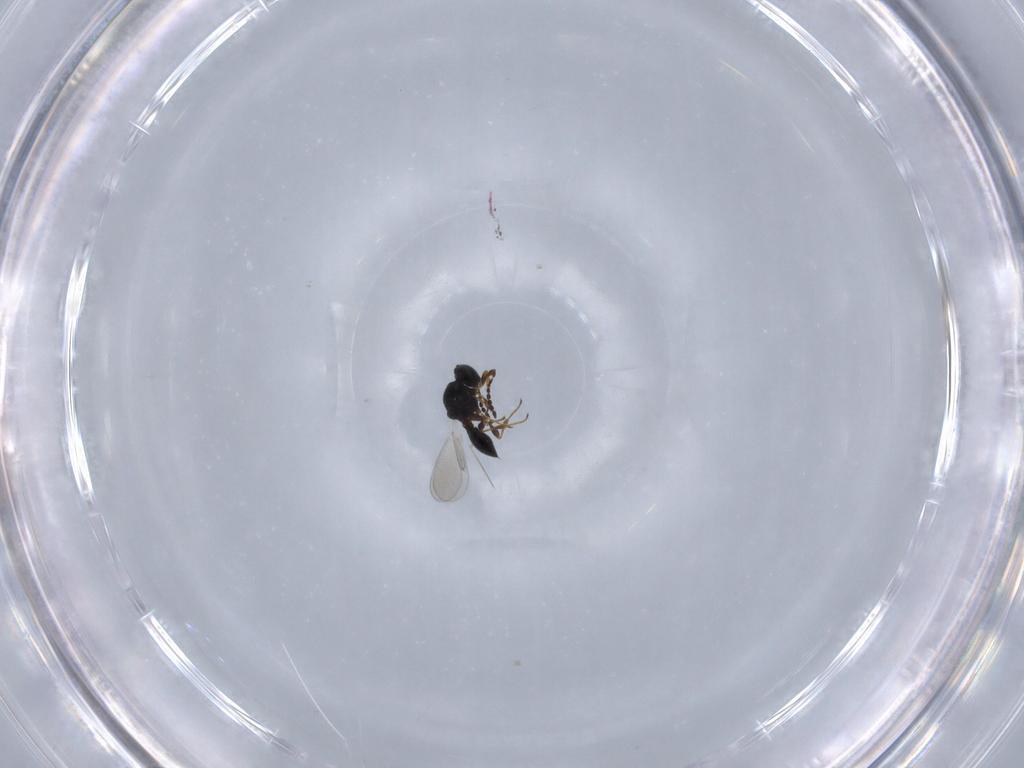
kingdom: Animalia
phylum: Arthropoda
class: Insecta
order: Hymenoptera
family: Platygastridae
